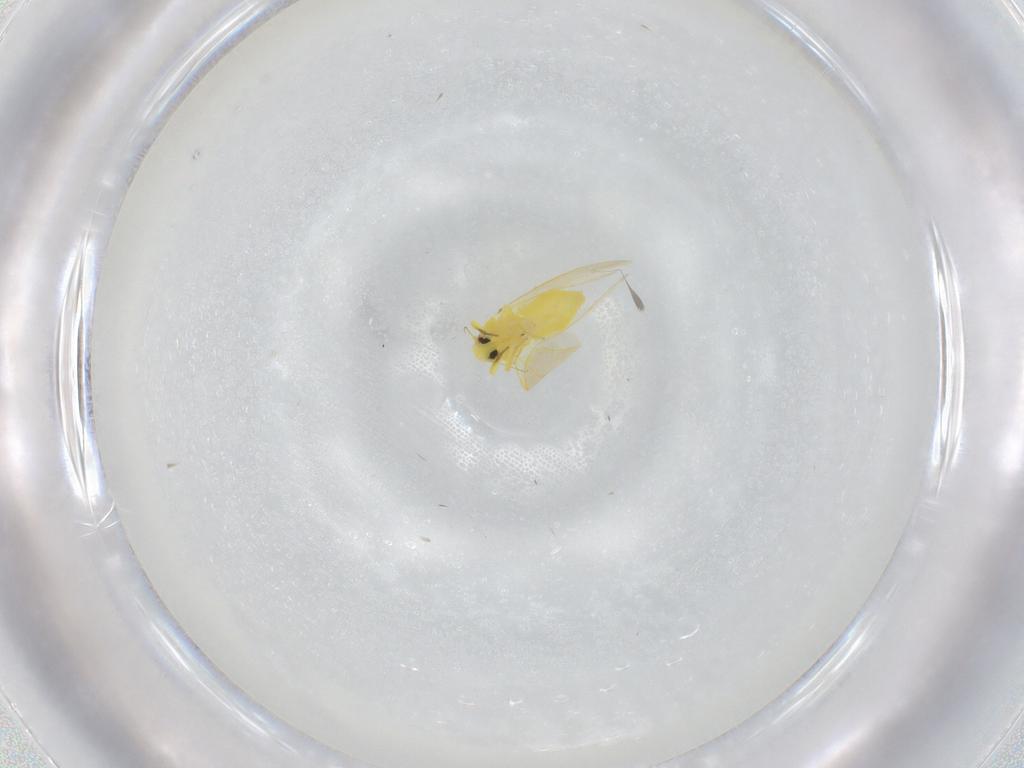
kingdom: Animalia
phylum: Arthropoda
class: Insecta
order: Hemiptera
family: Aleyrodidae
